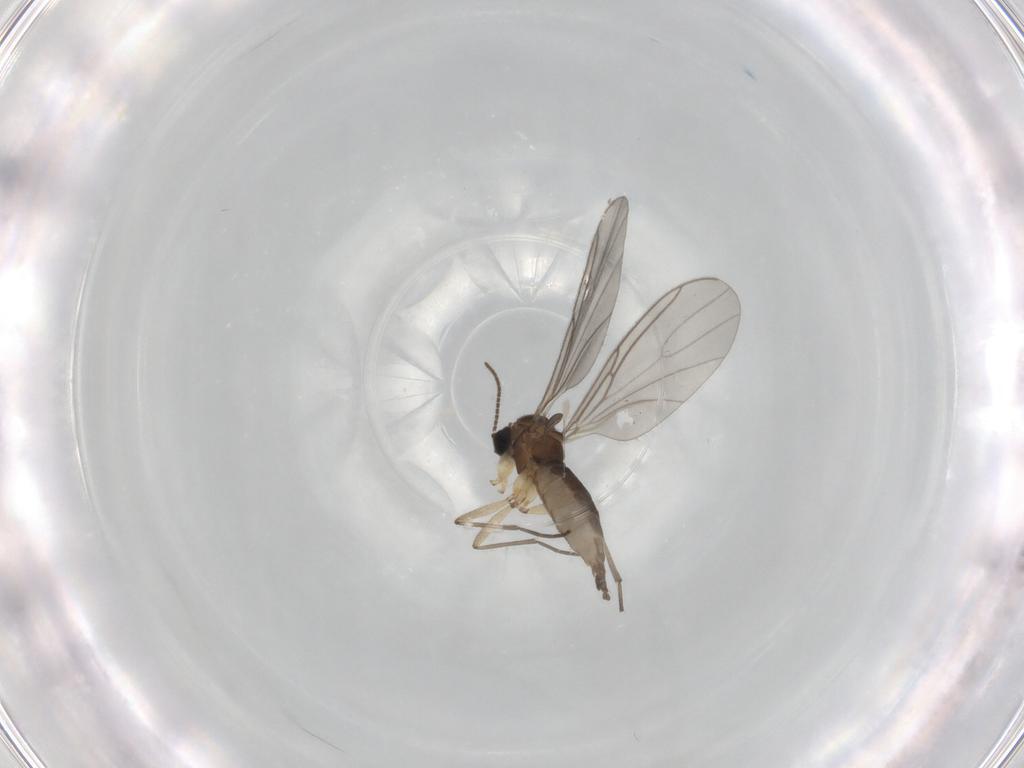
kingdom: Animalia
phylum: Arthropoda
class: Insecta
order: Diptera
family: Sciaridae
